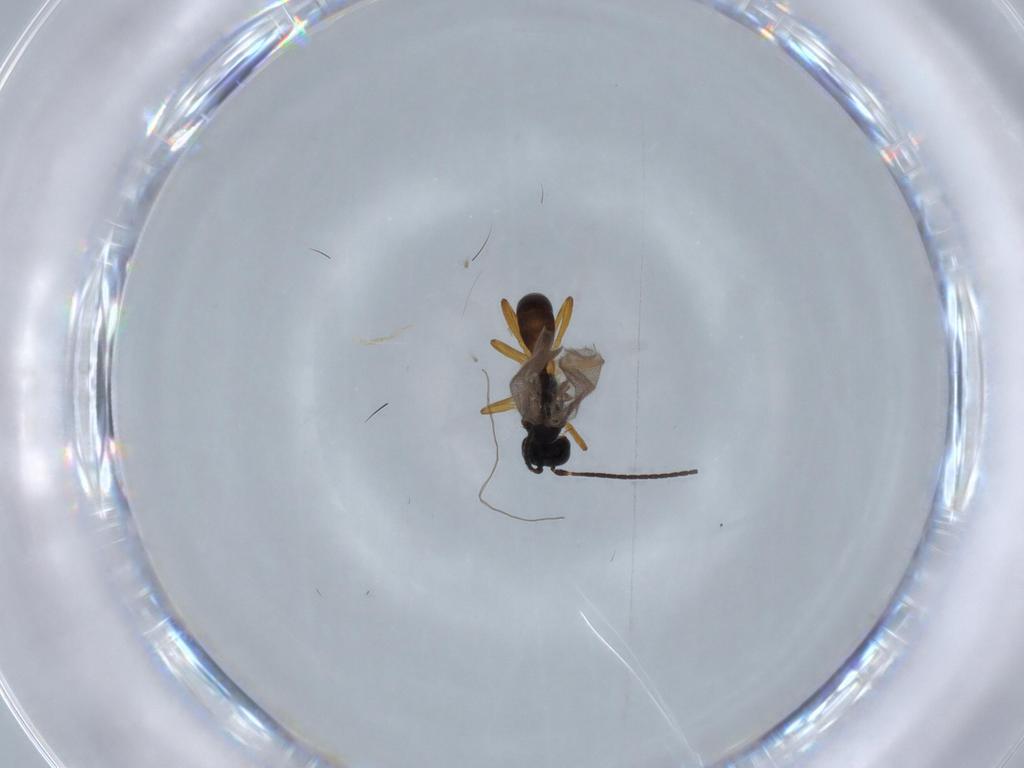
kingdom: Animalia
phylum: Arthropoda
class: Insecta
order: Hymenoptera
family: Braconidae
